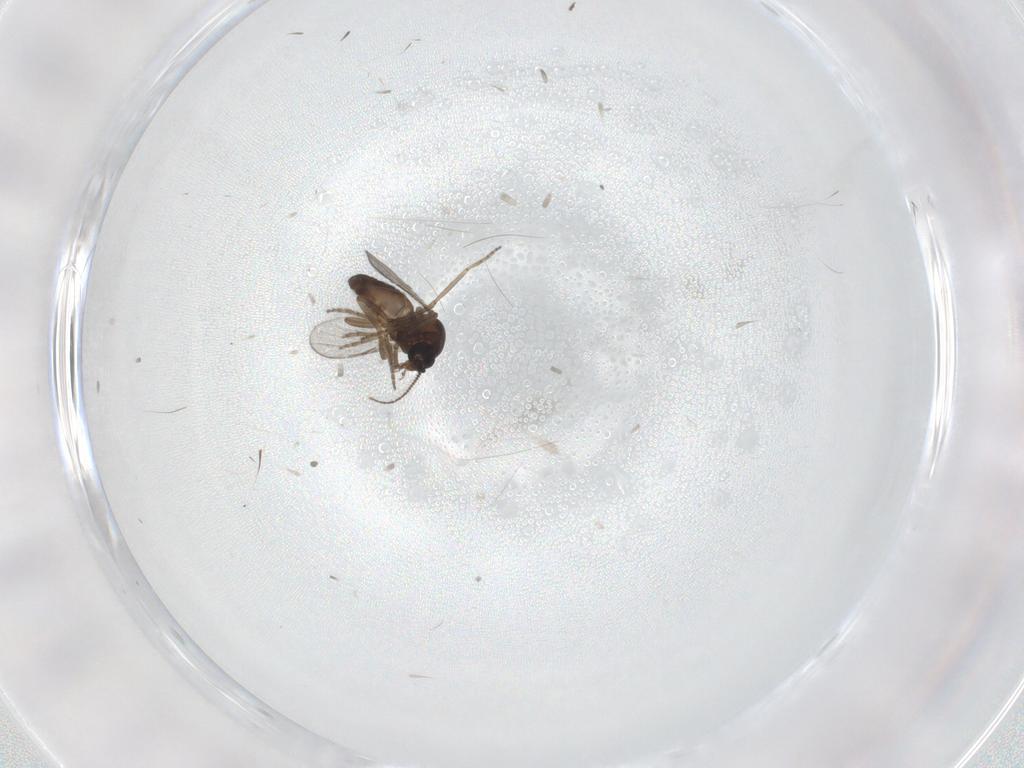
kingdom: Animalia
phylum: Arthropoda
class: Insecta
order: Diptera
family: Ceratopogonidae
